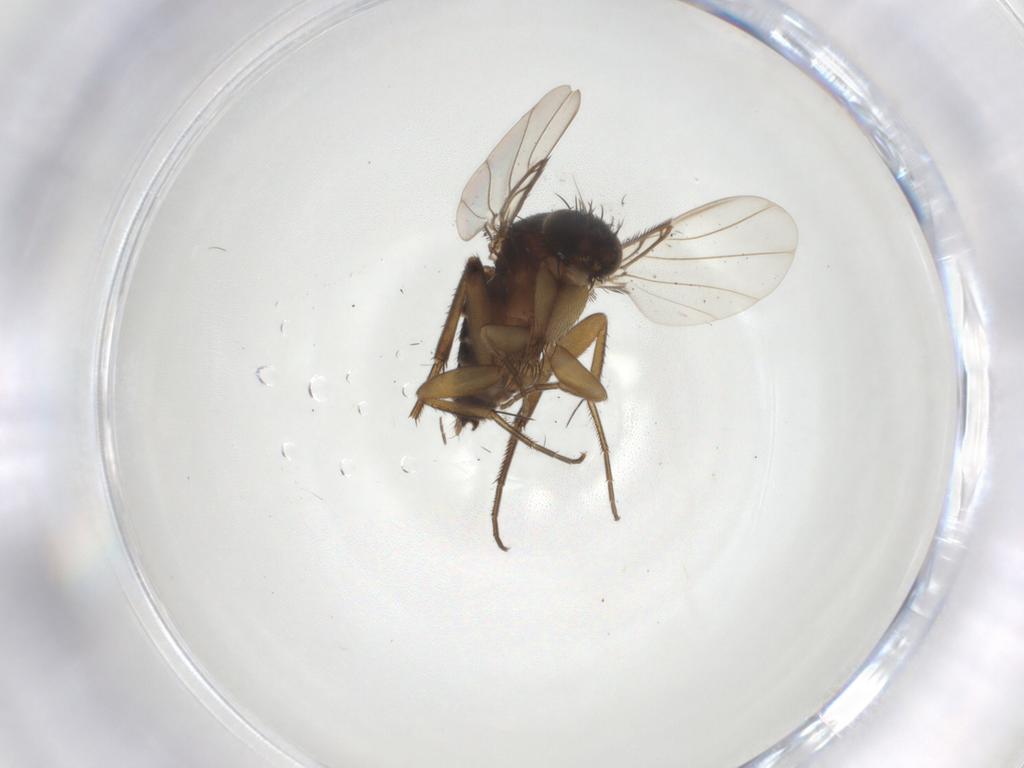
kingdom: Animalia
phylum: Arthropoda
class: Insecta
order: Diptera
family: Phoridae
